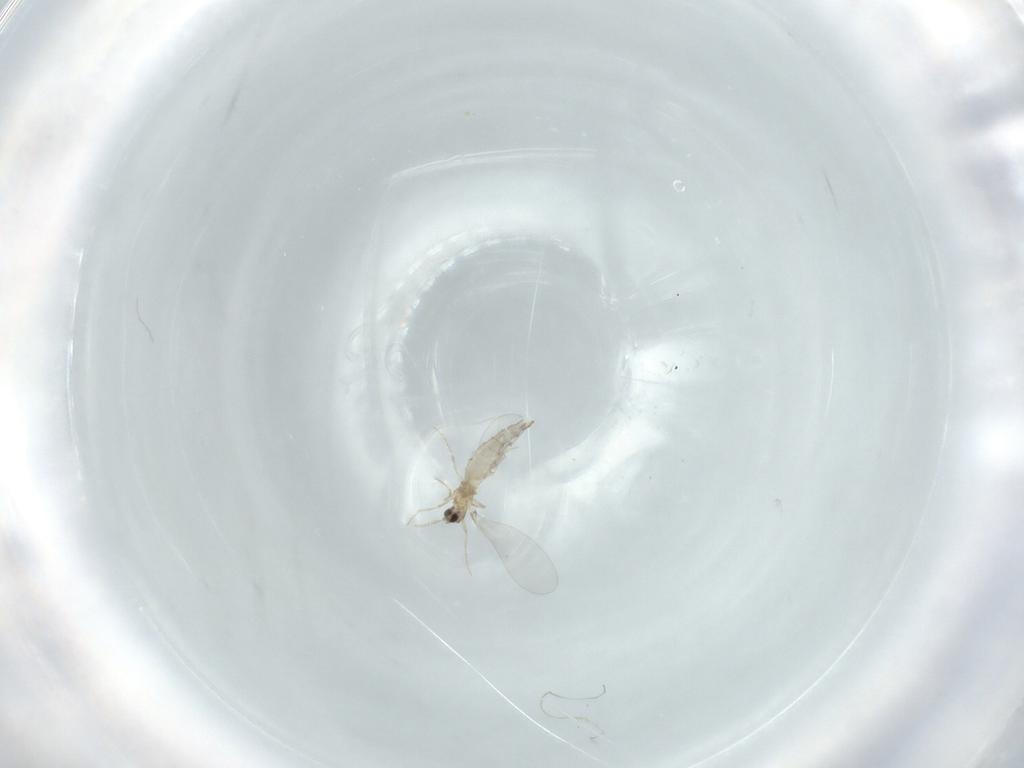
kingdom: Animalia
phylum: Arthropoda
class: Insecta
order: Diptera
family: Cecidomyiidae
